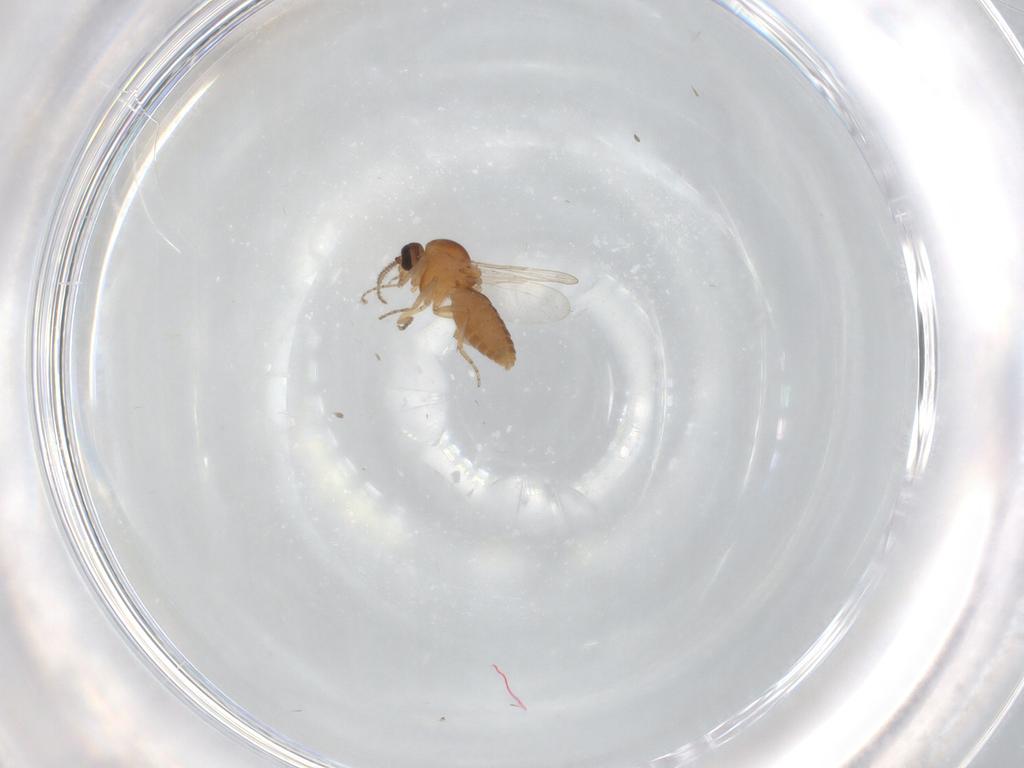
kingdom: Animalia
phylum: Arthropoda
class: Insecta
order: Diptera
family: Ceratopogonidae
